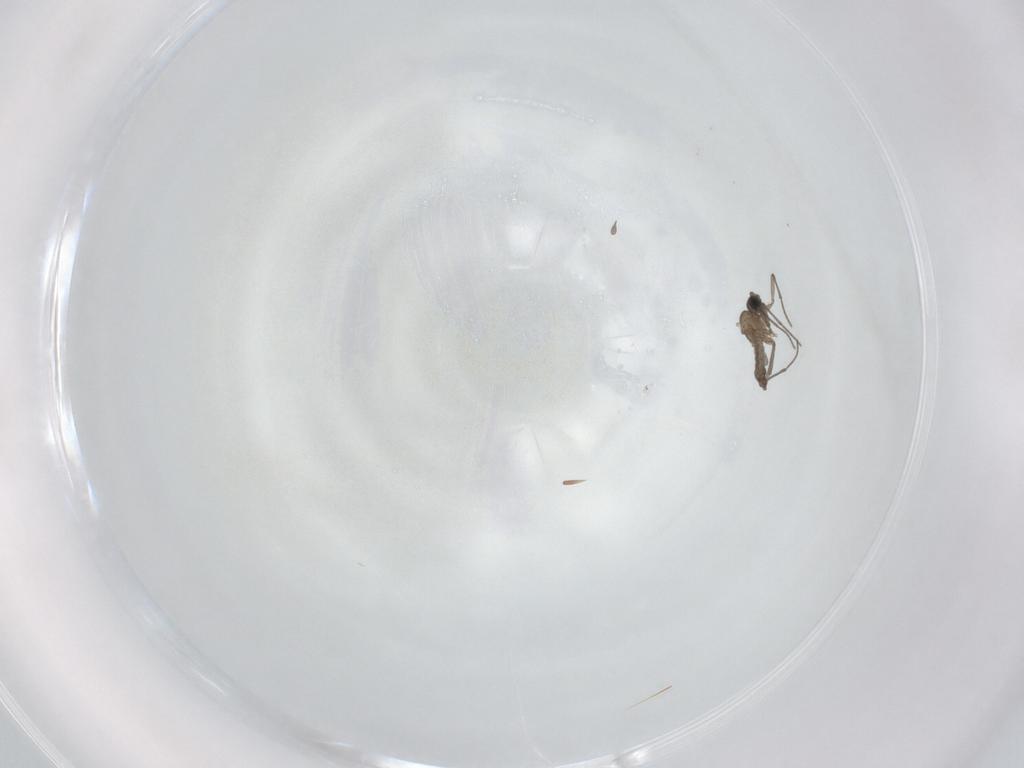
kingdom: Animalia
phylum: Arthropoda
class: Insecta
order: Diptera
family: Sciaridae
